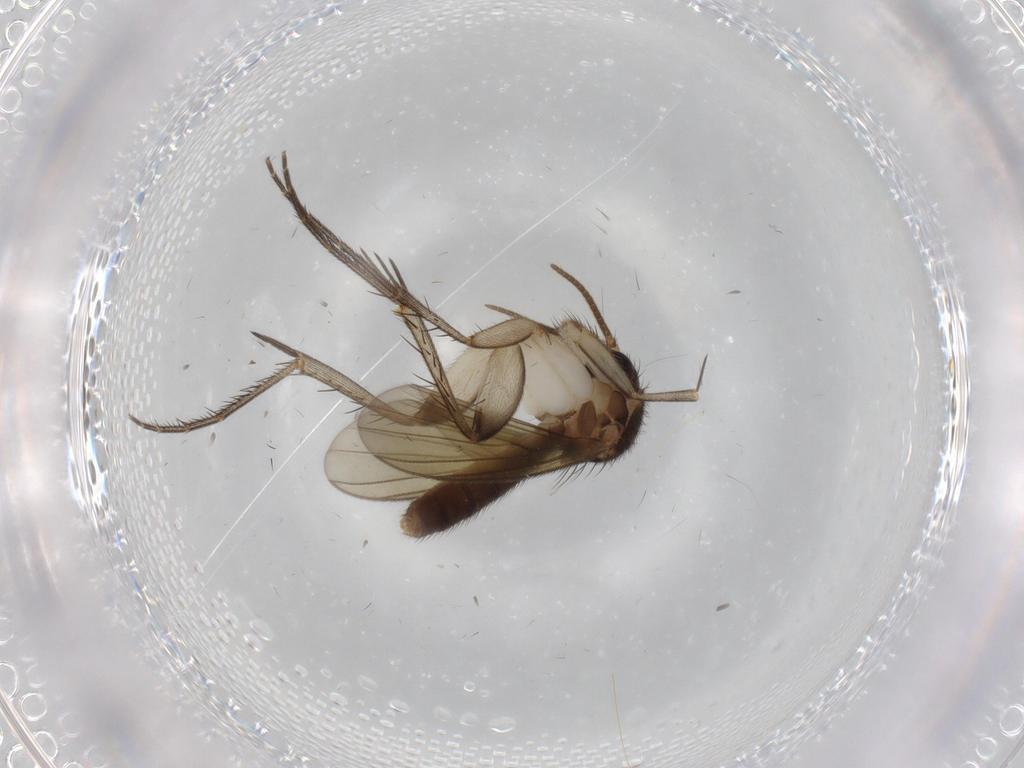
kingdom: Animalia
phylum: Arthropoda
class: Insecta
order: Diptera
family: Mycetophilidae
